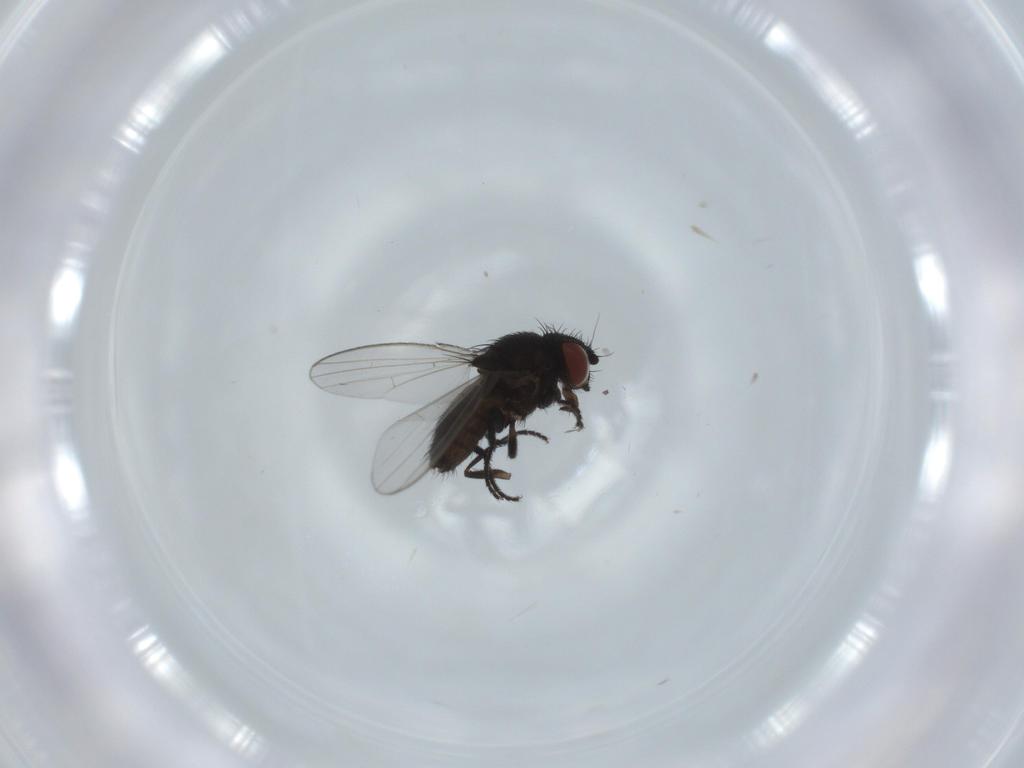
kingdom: Animalia
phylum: Arthropoda
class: Insecta
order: Diptera
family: Milichiidae
